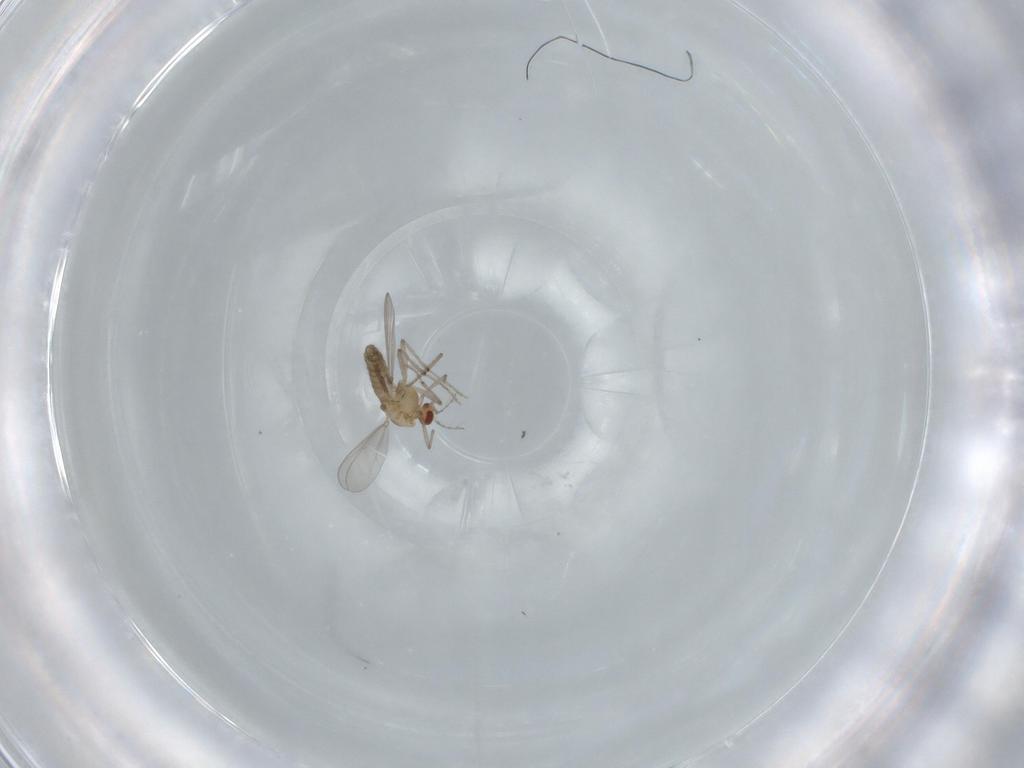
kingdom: Animalia
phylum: Arthropoda
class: Insecta
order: Diptera
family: Chironomidae
